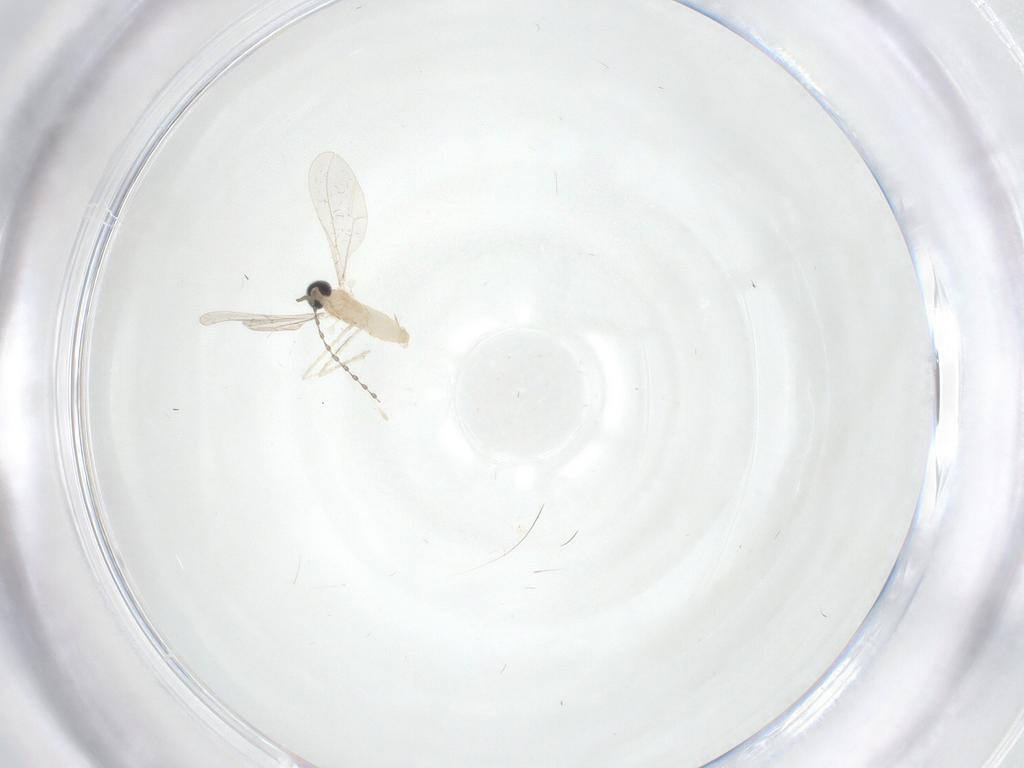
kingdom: Animalia
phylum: Arthropoda
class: Insecta
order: Diptera
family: Cecidomyiidae
